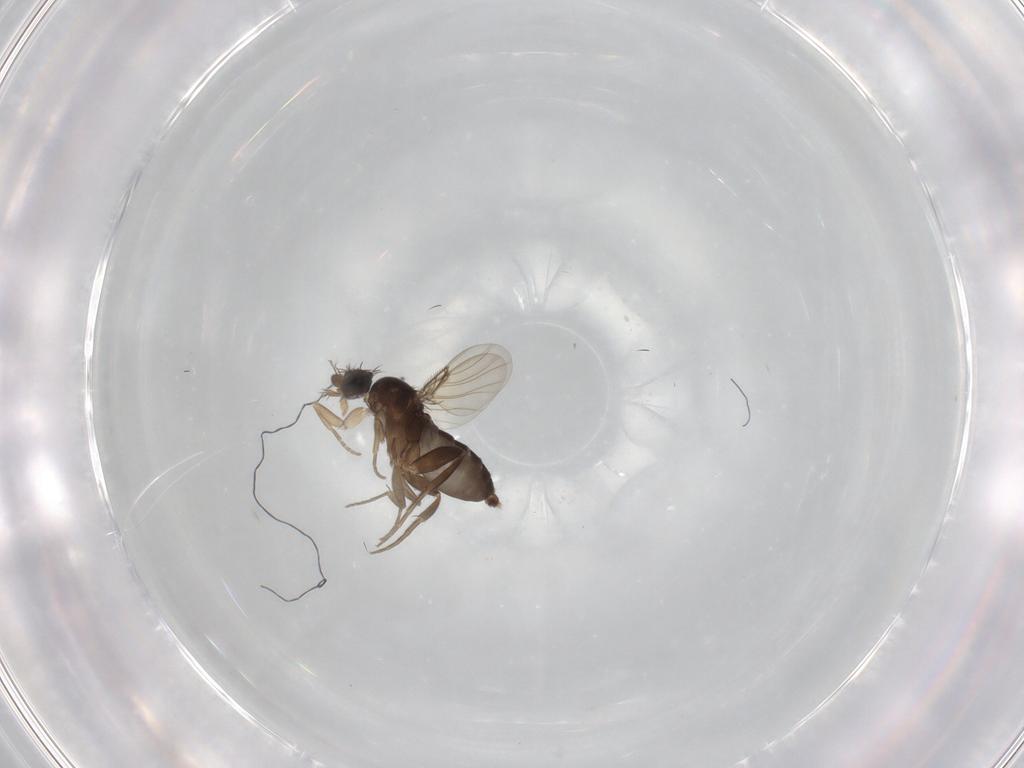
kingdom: Animalia
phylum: Arthropoda
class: Insecta
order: Diptera
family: Phoridae
